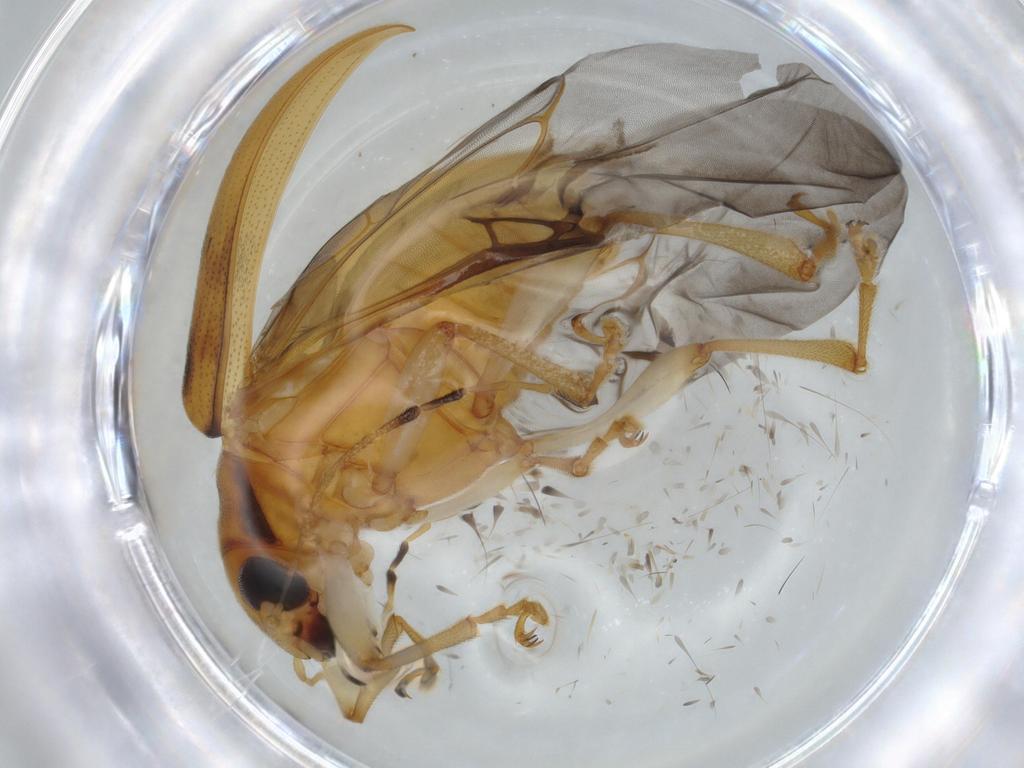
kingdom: Animalia
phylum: Arthropoda
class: Insecta
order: Coleoptera
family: Chrysomelidae
